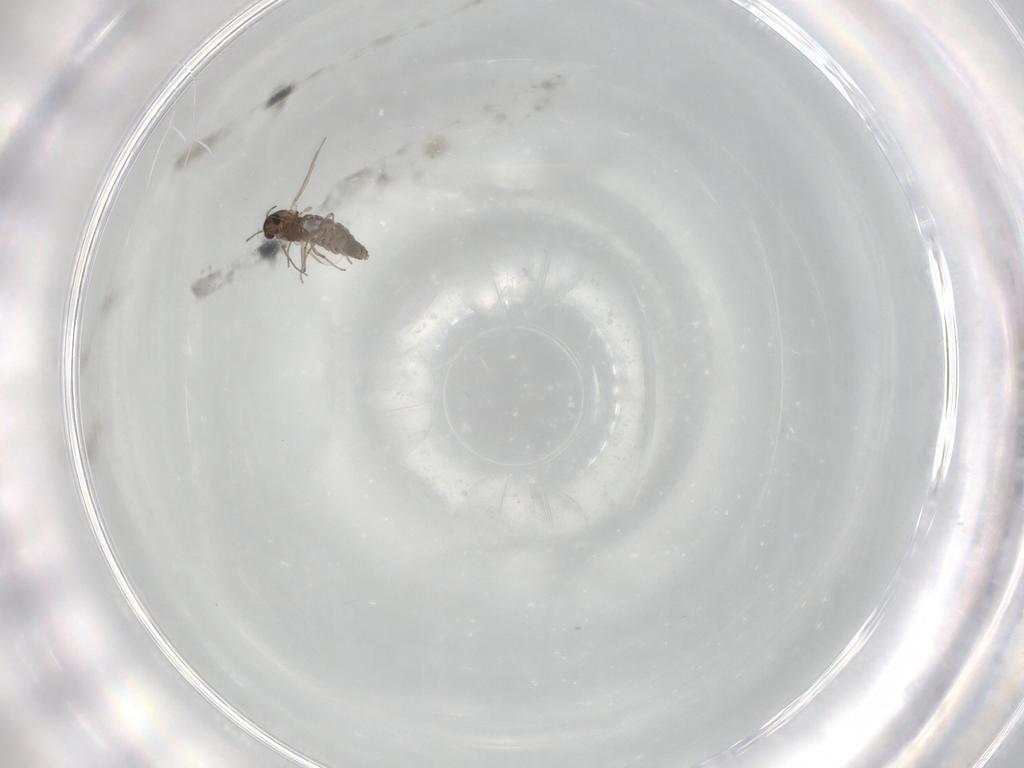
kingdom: Animalia
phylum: Arthropoda
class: Insecta
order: Diptera
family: Chironomidae
